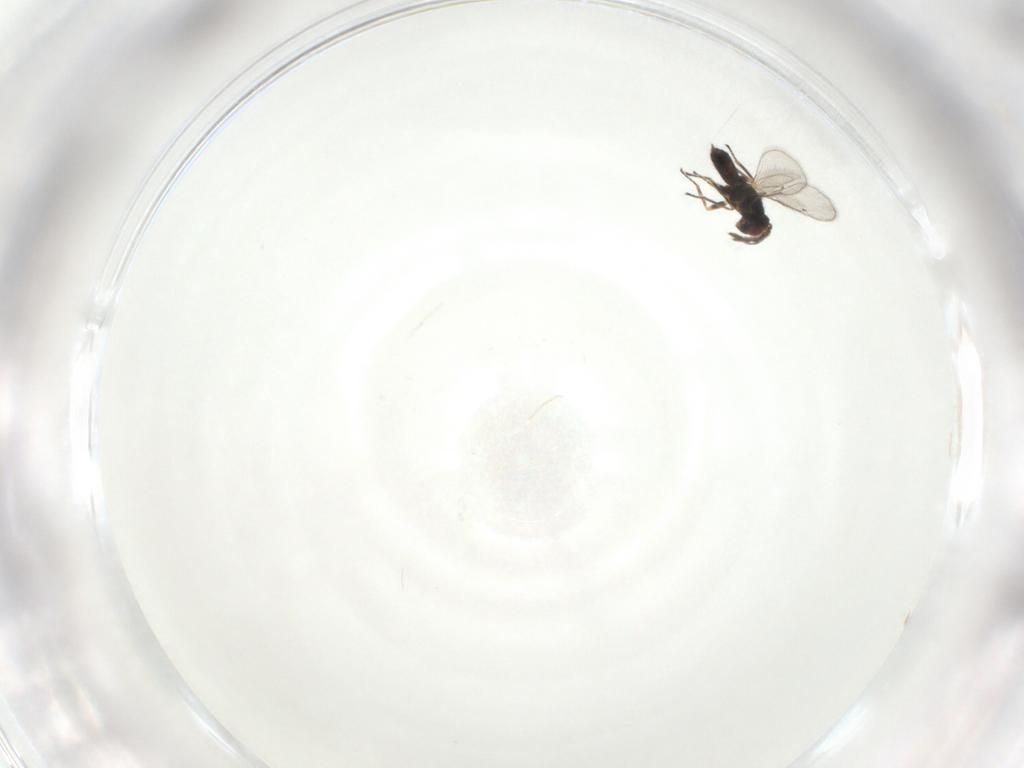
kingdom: Animalia
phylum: Arthropoda
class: Insecta
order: Hymenoptera
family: Eulophidae
